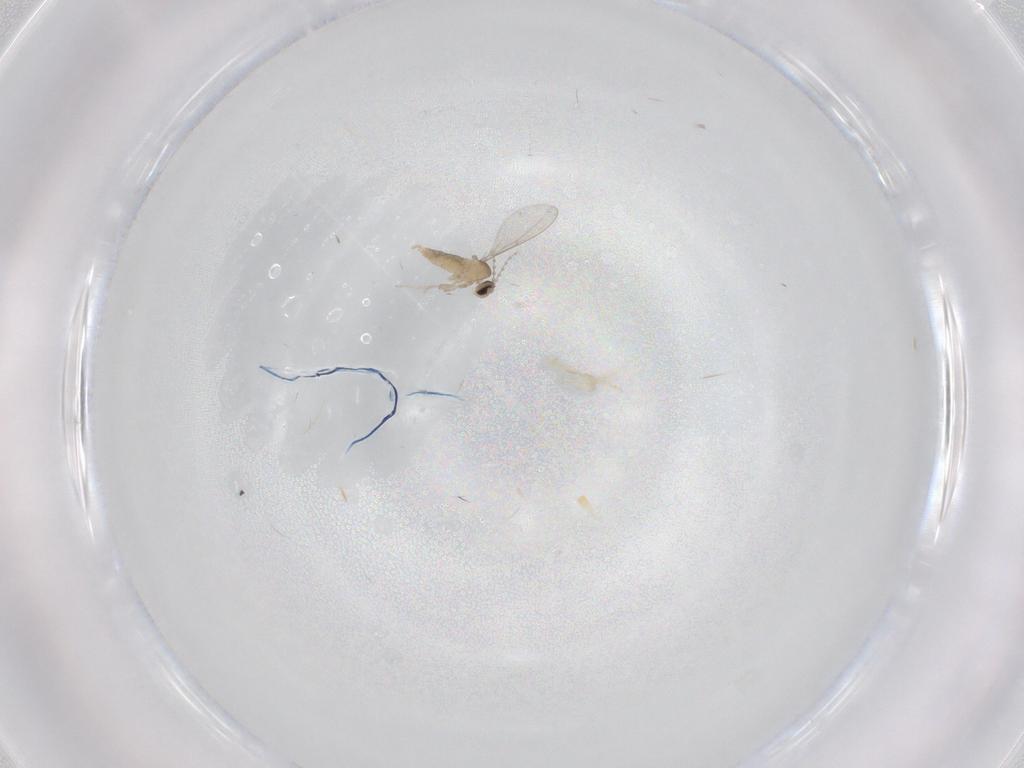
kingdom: Animalia
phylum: Arthropoda
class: Insecta
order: Diptera
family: Cecidomyiidae
